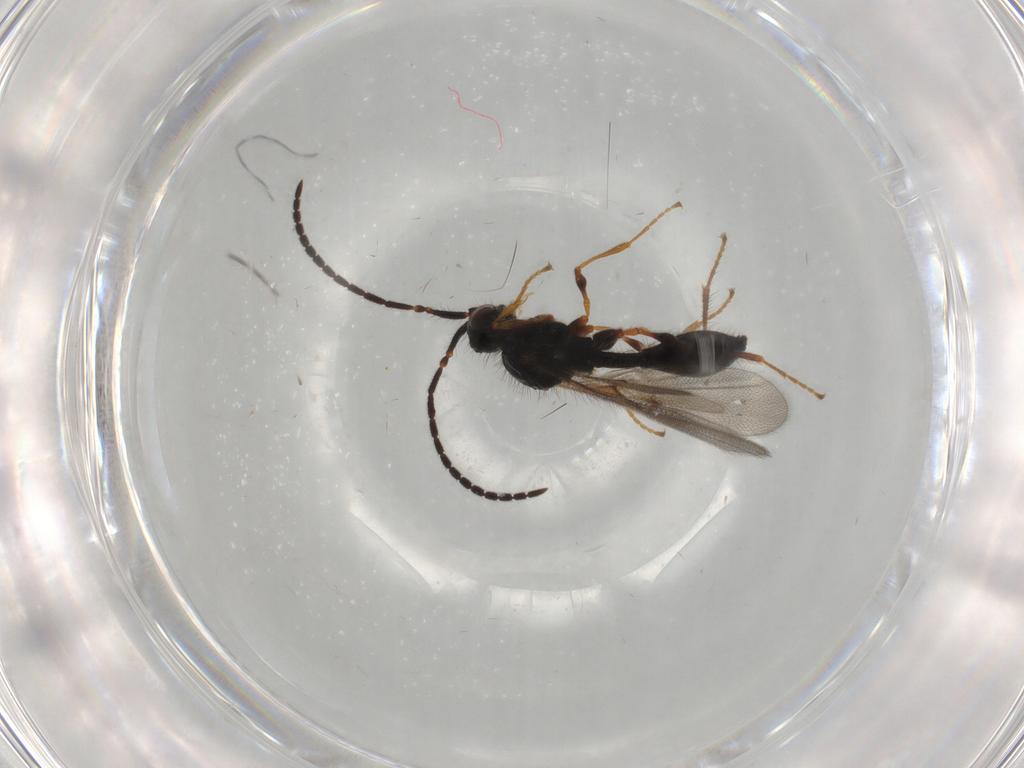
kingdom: Animalia
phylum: Arthropoda
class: Insecta
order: Hymenoptera
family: Diapriidae
